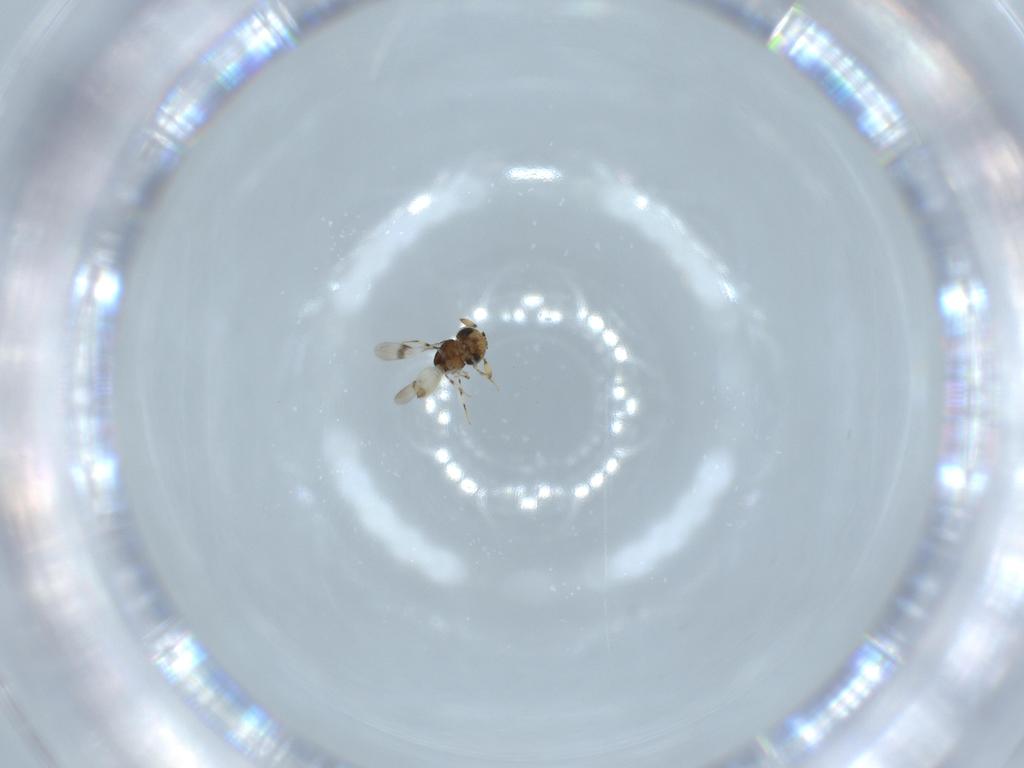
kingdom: Animalia
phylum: Arthropoda
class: Insecta
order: Hymenoptera
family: Scelionidae
